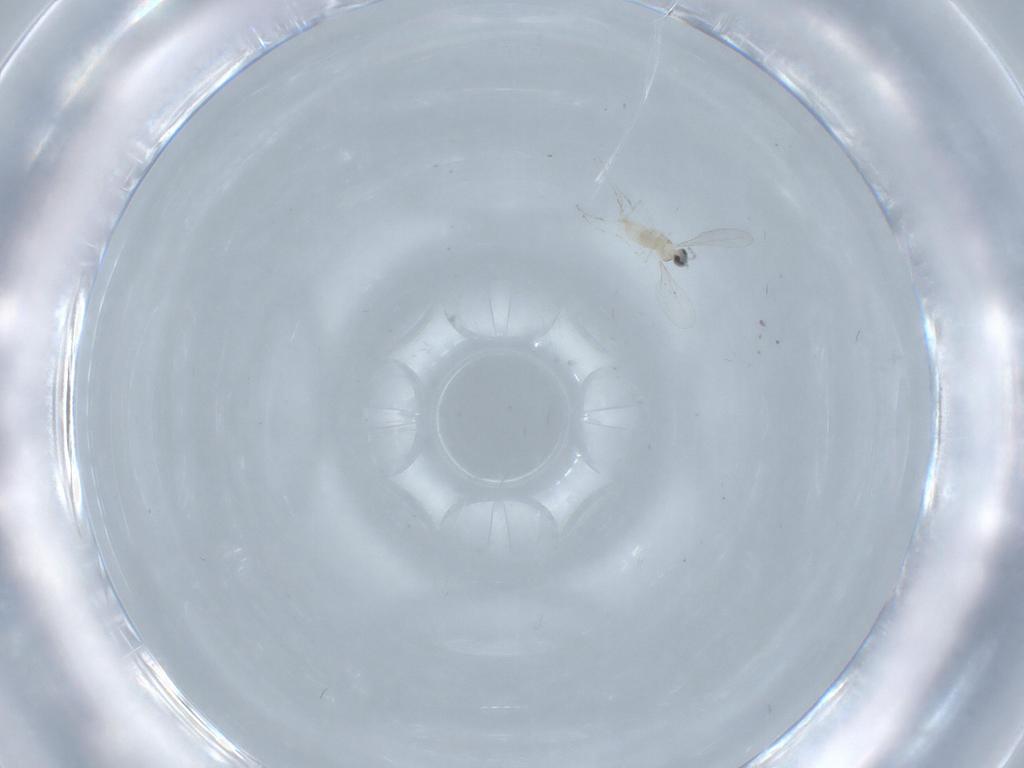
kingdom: Animalia
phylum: Arthropoda
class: Insecta
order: Diptera
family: Cecidomyiidae
